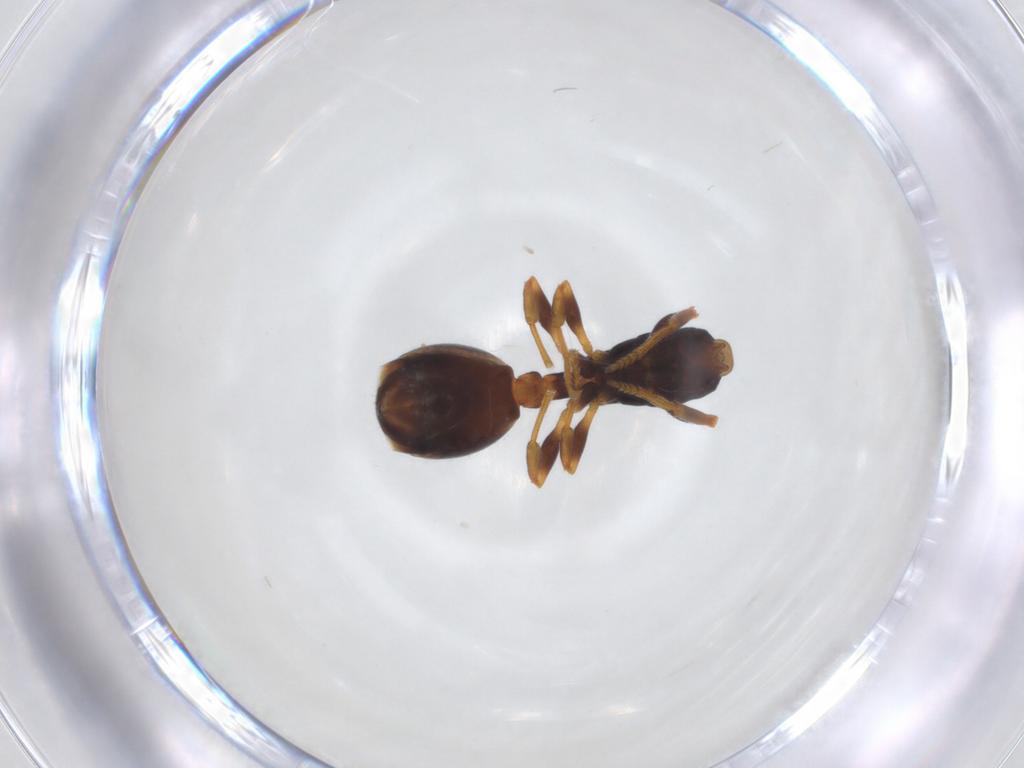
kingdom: Animalia
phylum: Arthropoda
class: Insecta
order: Hymenoptera
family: Formicidae
